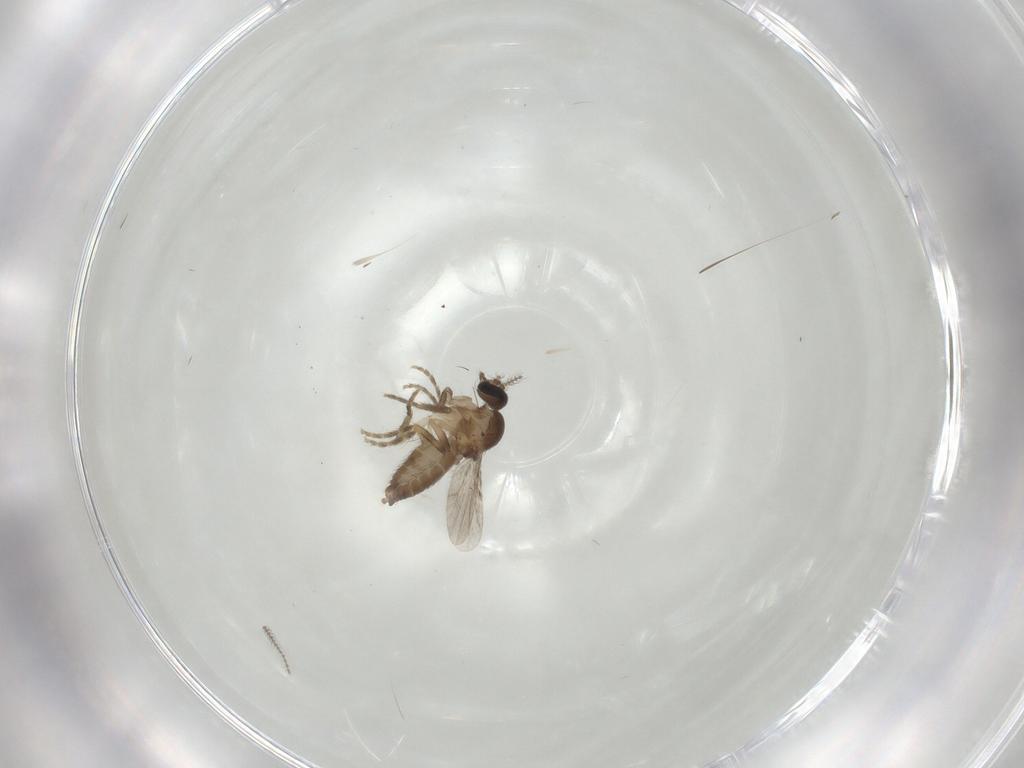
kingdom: Animalia
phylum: Arthropoda
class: Insecta
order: Diptera
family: Ceratopogonidae
